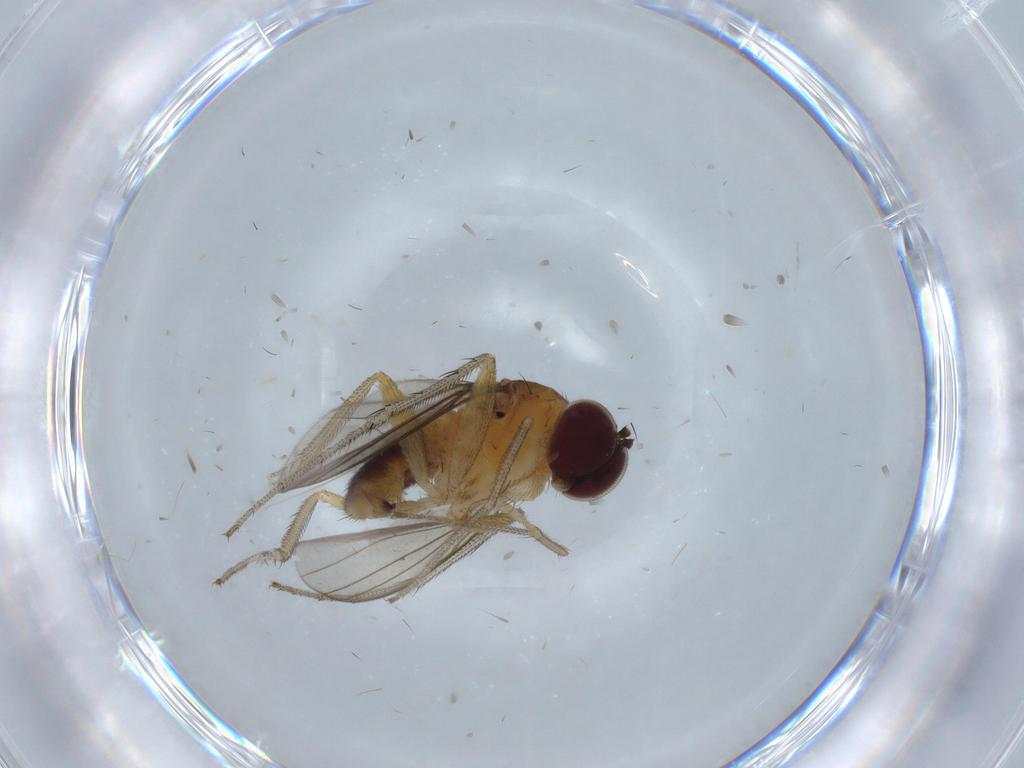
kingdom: Animalia
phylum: Arthropoda
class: Insecta
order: Diptera
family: Dolichopodidae
